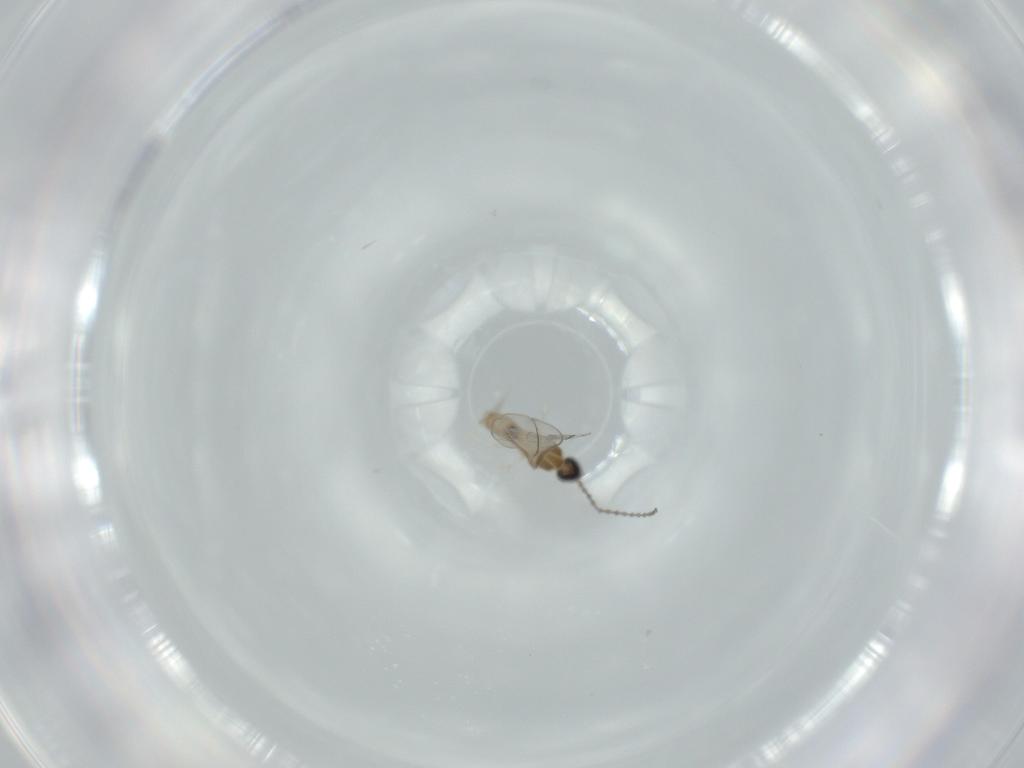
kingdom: Animalia
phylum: Arthropoda
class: Insecta
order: Diptera
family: Cecidomyiidae
